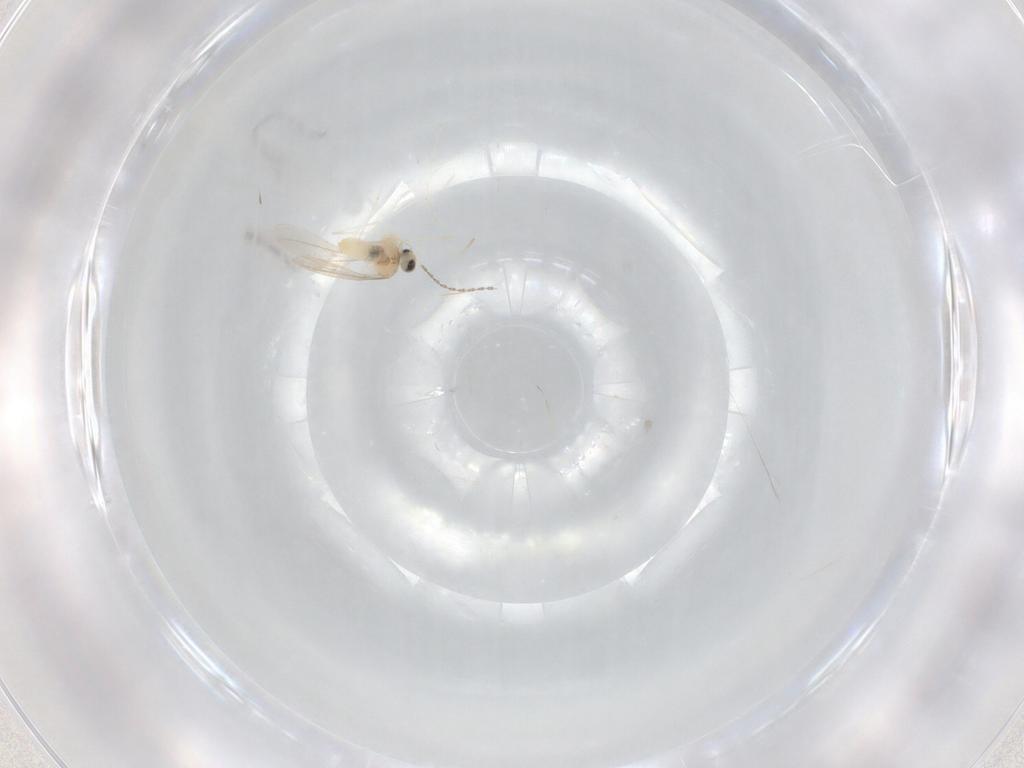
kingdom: Animalia
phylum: Arthropoda
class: Insecta
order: Diptera
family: Cecidomyiidae
